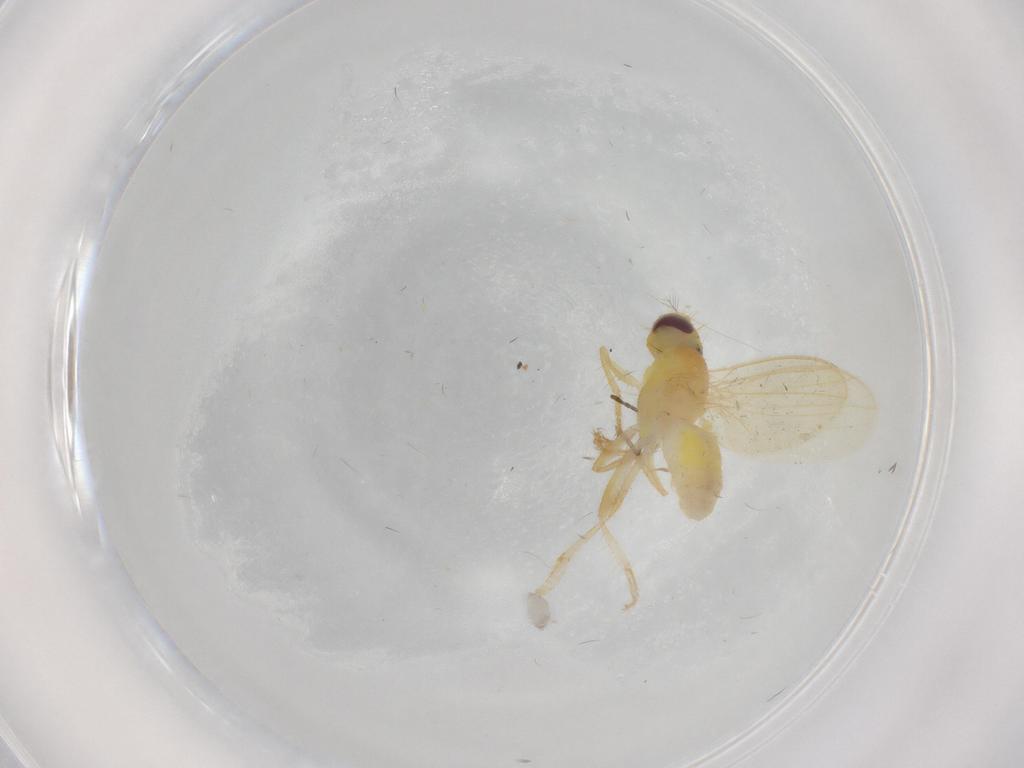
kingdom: Animalia
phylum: Arthropoda
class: Insecta
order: Diptera
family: Periscelididae
